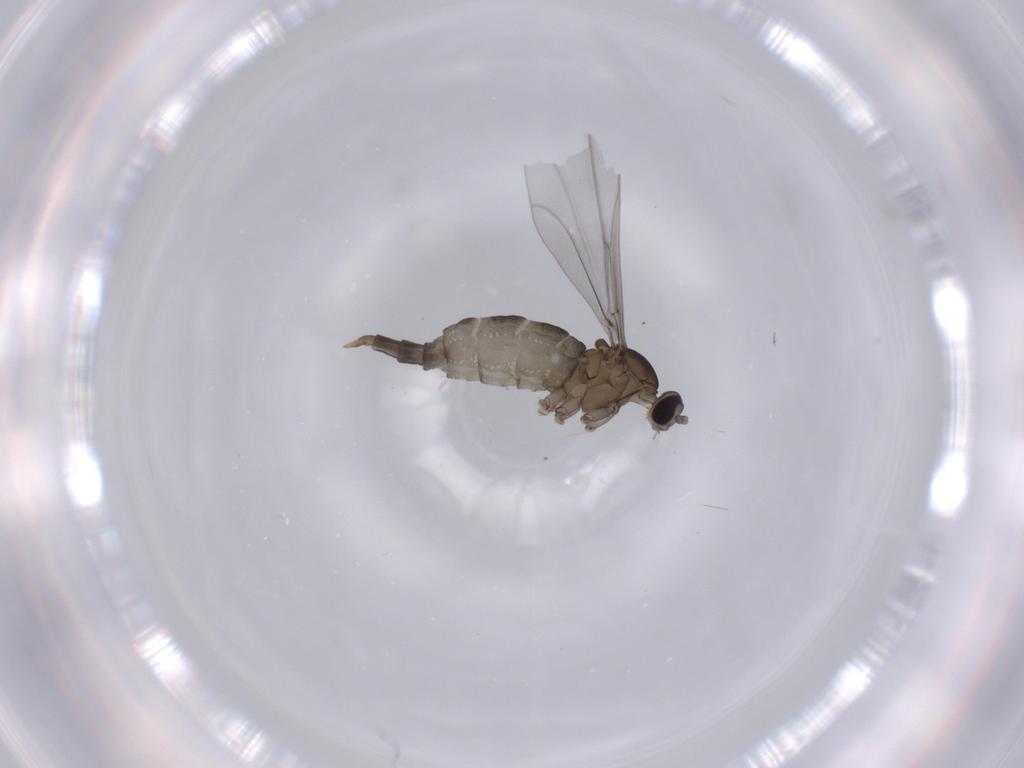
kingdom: Animalia
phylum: Arthropoda
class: Insecta
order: Diptera
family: Cecidomyiidae
